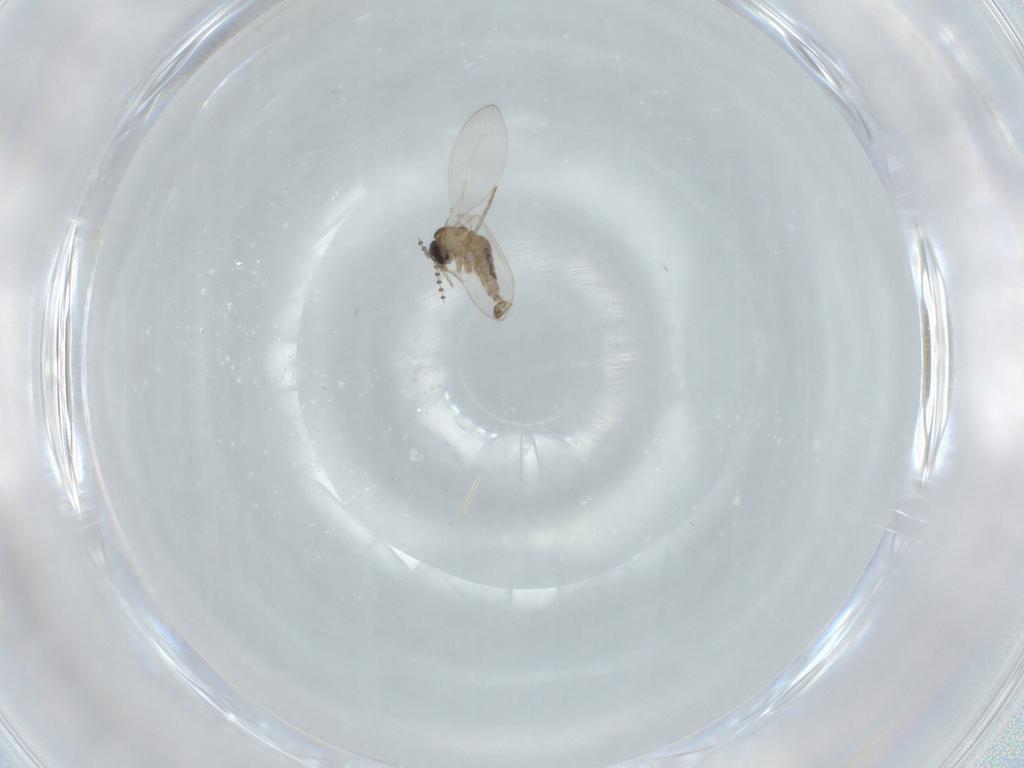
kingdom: Animalia
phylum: Arthropoda
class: Insecta
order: Diptera
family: Psychodidae
